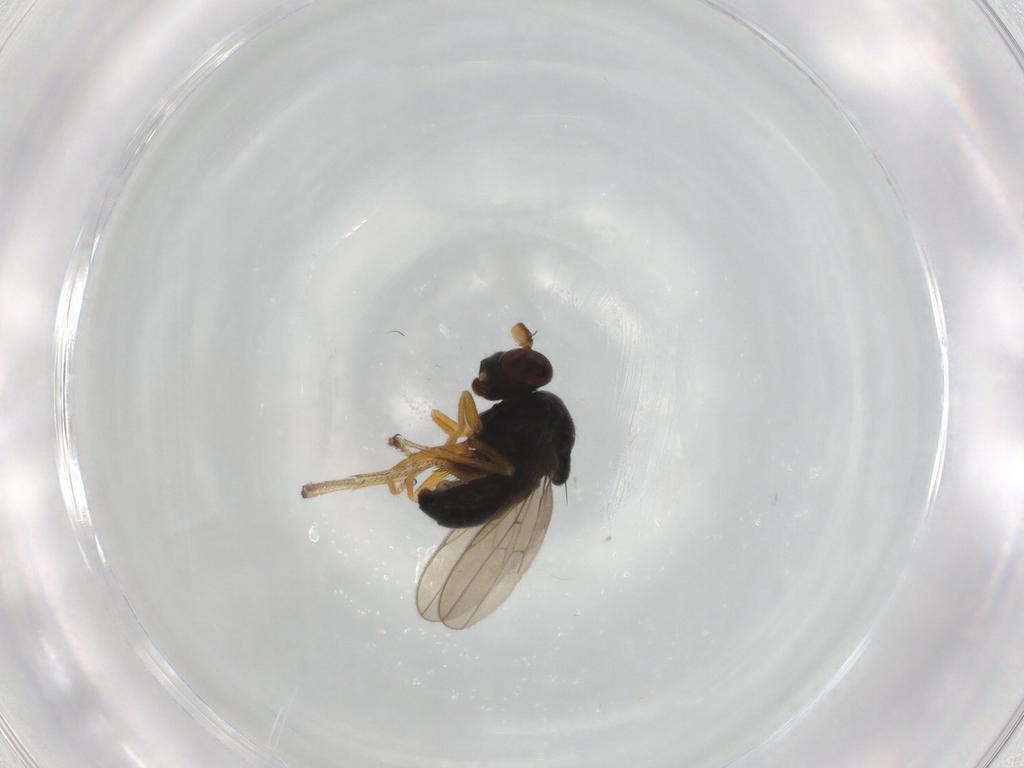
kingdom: Animalia
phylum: Arthropoda
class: Insecta
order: Diptera
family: Ephydridae
